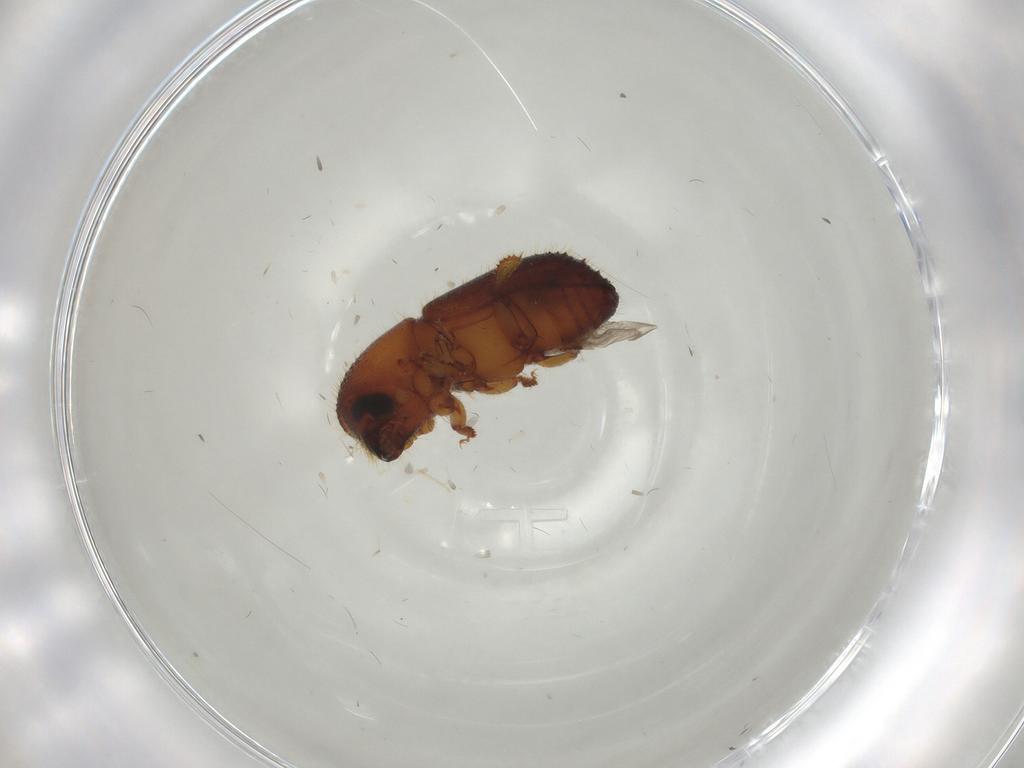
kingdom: Animalia
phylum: Arthropoda
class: Insecta
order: Coleoptera
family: Curculionidae
